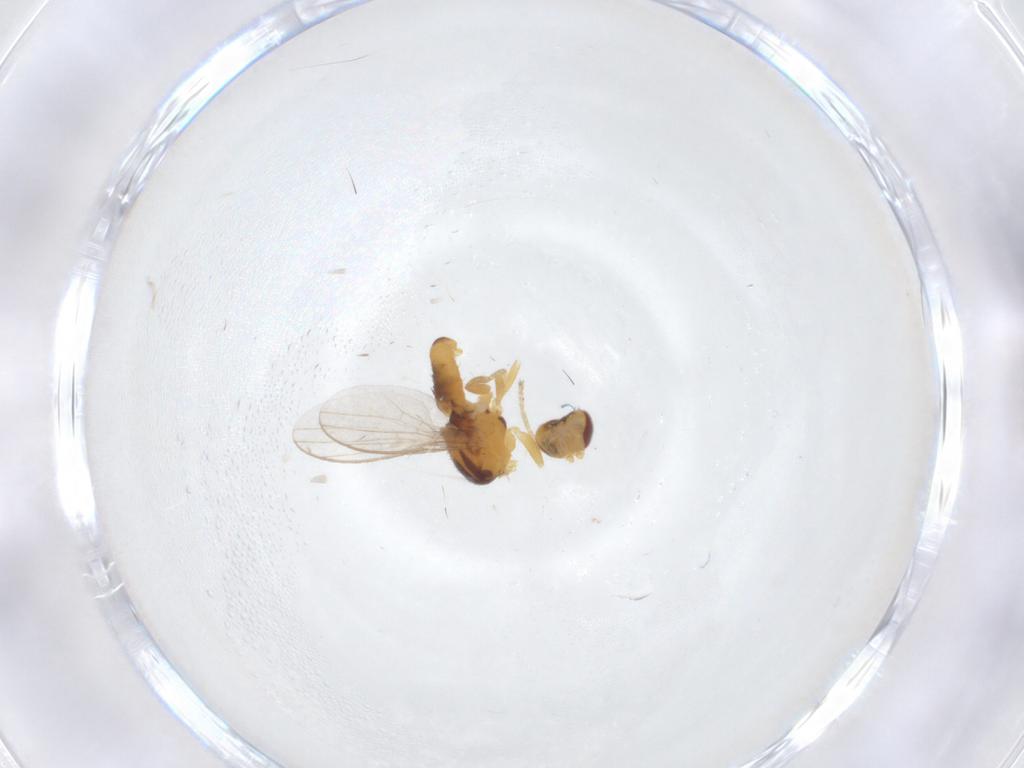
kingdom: Animalia
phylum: Arthropoda
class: Insecta
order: Diptera
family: Chloropidae
